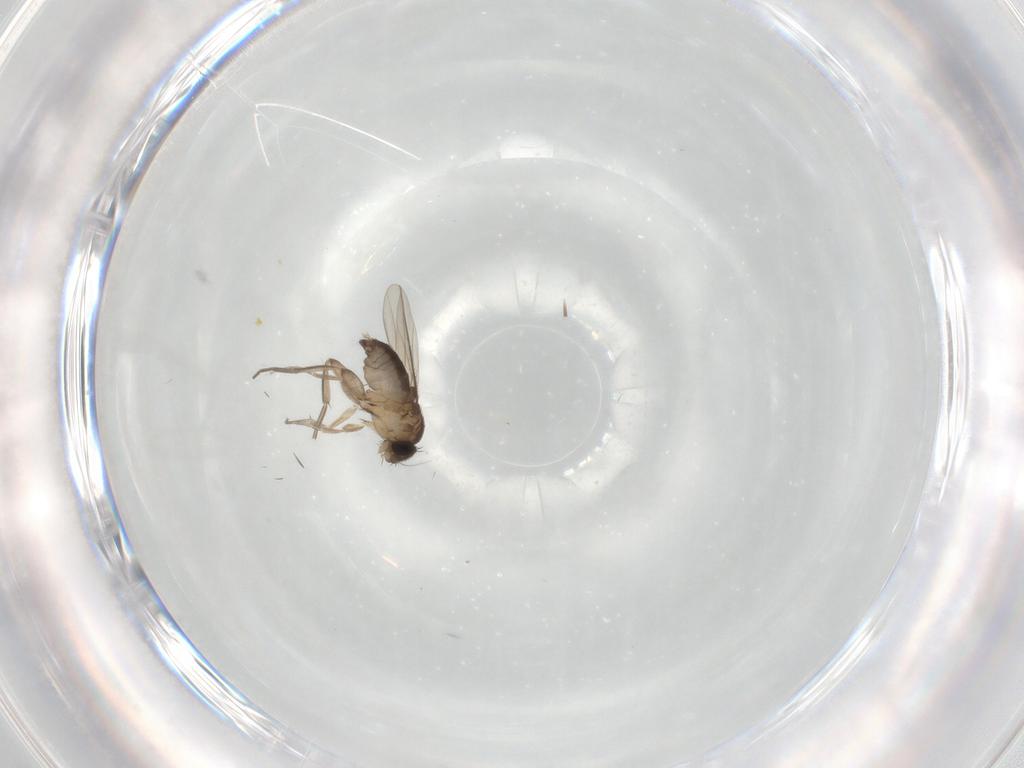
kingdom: Animalia
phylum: Arthropoda
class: Insecta
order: Diptera
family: Phoridae
